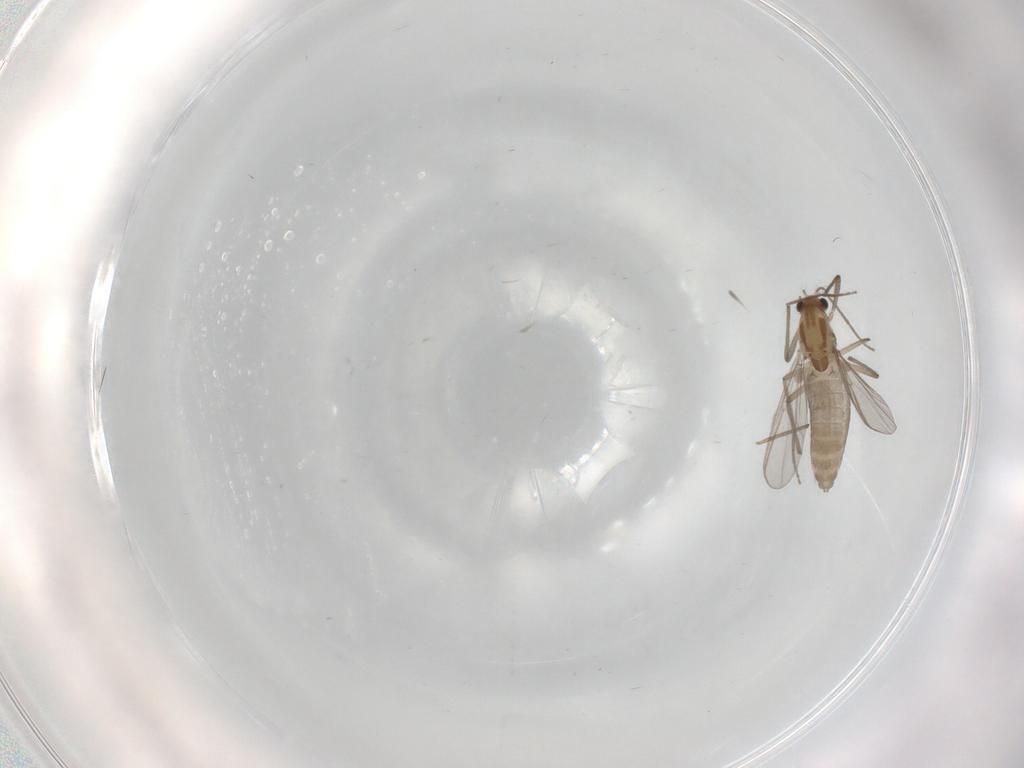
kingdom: Animalia
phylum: Arthropoda
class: Insecta
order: Diptera
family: Chironomidae
